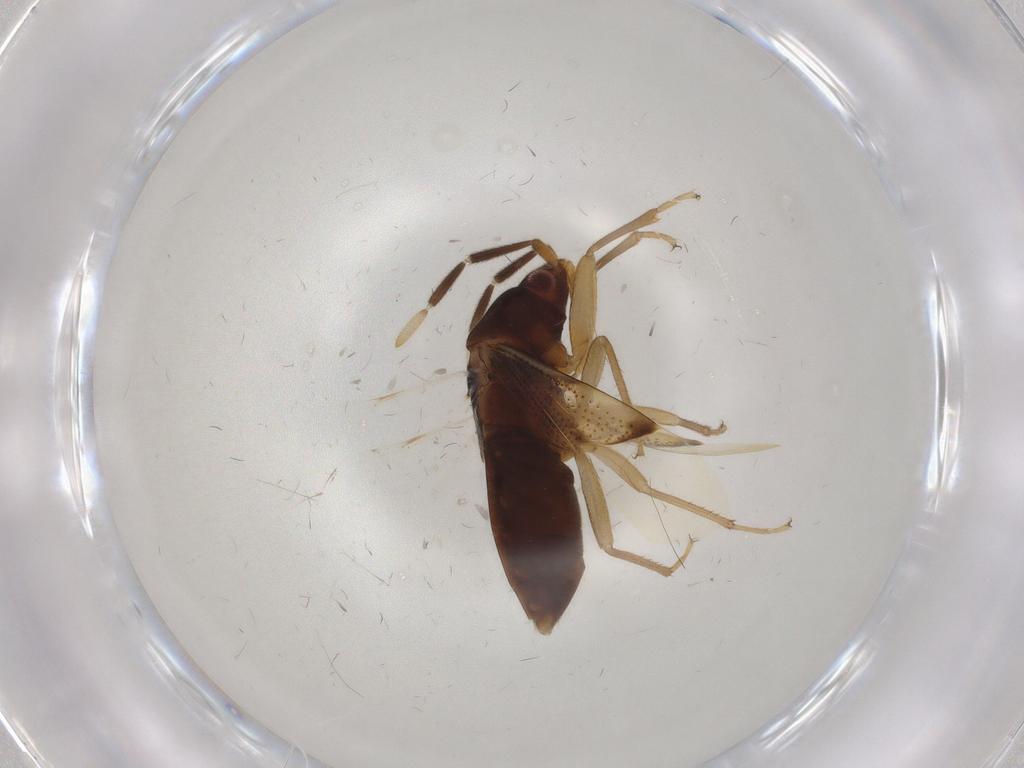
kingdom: Animalia
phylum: Arthropoda
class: Insecta
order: Hemiptera
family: Rhyparochromidae
